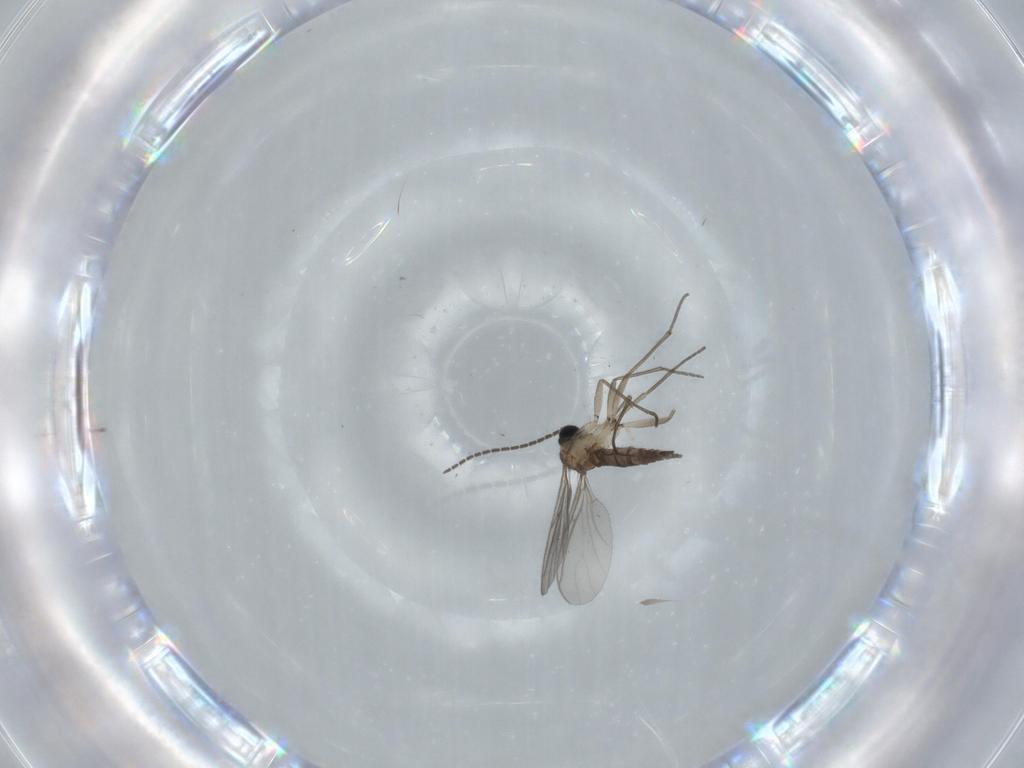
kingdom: Animalia
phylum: Arthropoda
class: Insecta
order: Diptera
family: Sciaridae
